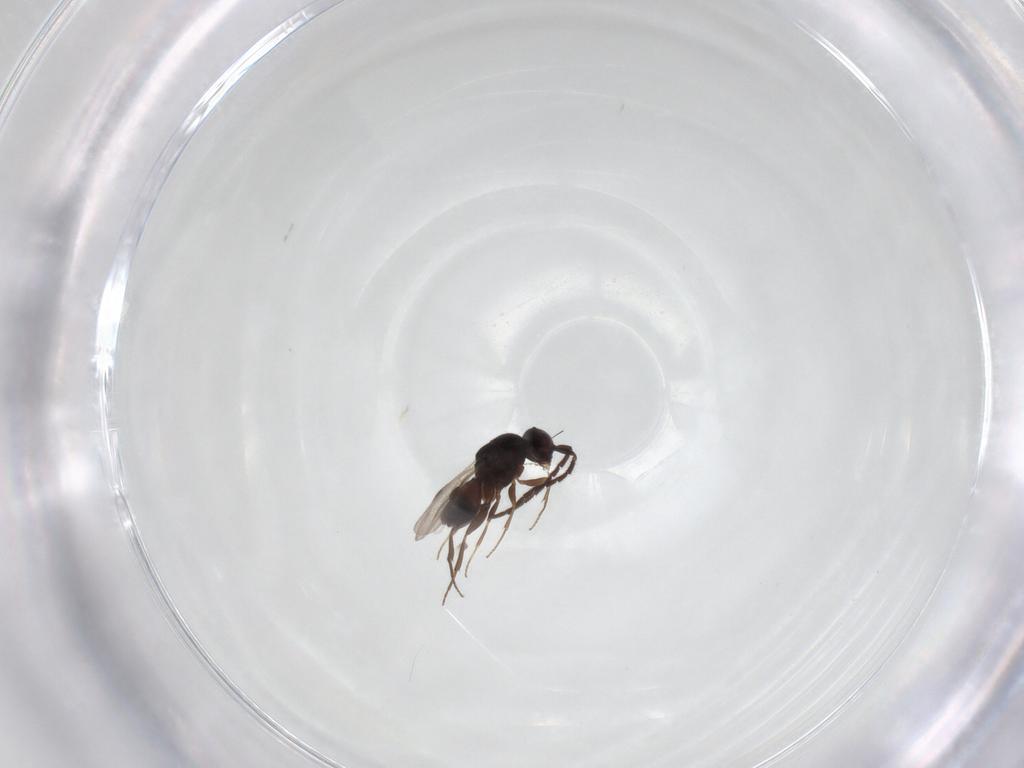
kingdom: Animalia
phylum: Arthropoda
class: Insecta
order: Hymenoptera
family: Megaspilidae
